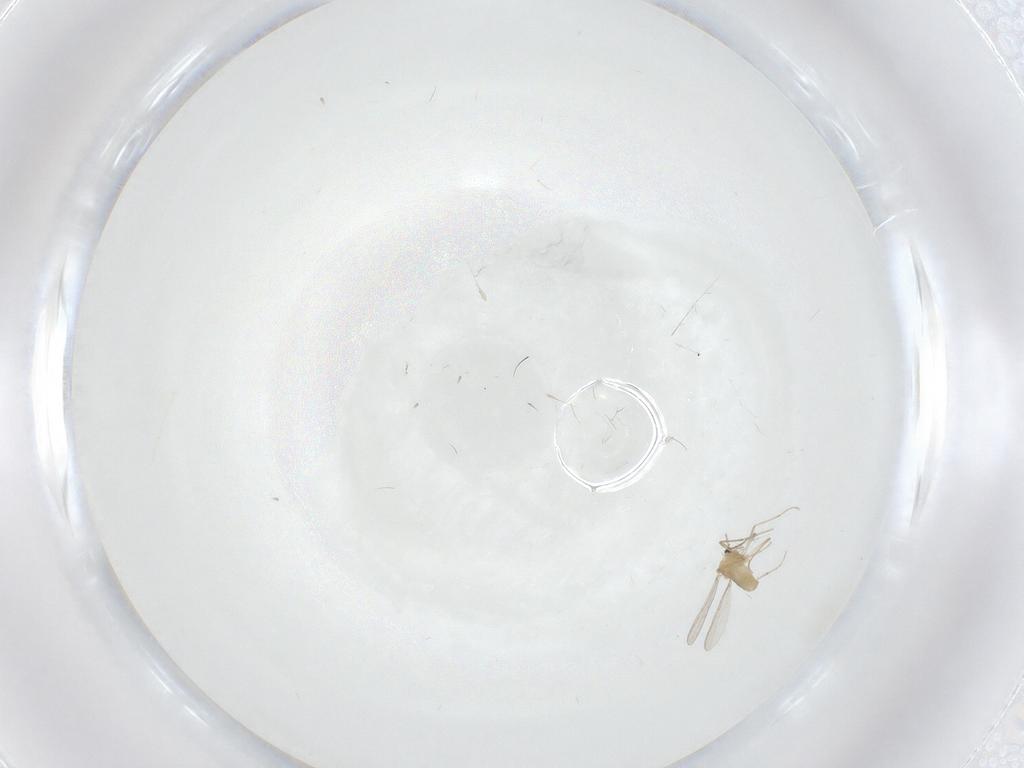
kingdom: Animalia
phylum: Arthropoda
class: Insecta
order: Diptera
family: Chironomidae
